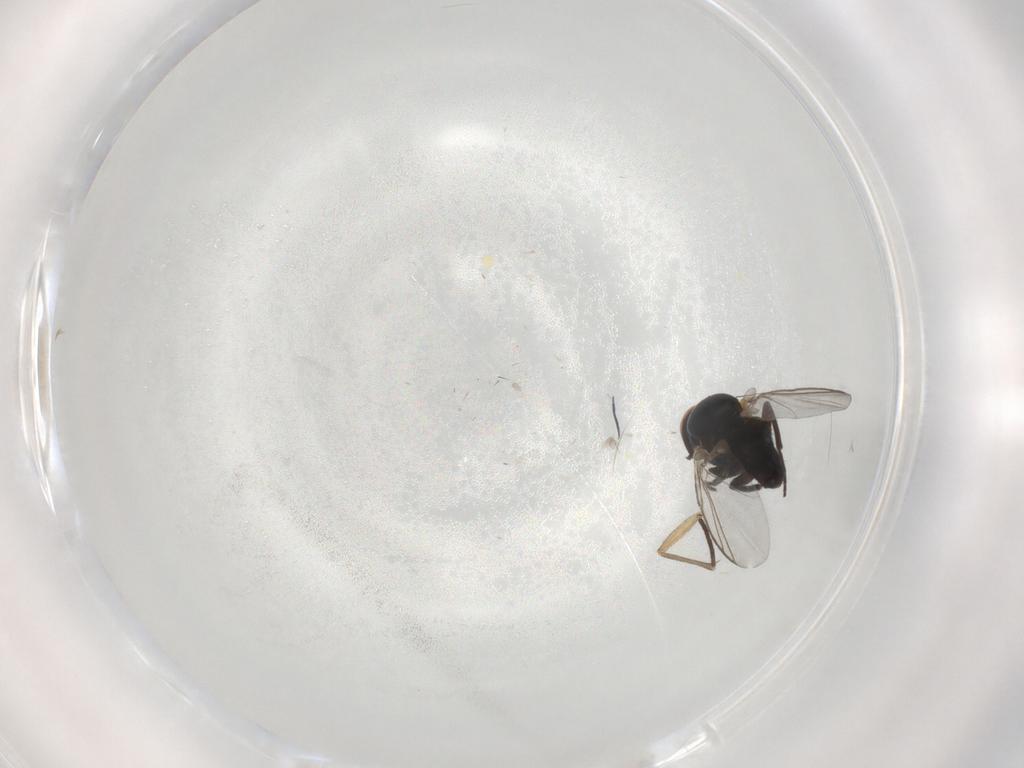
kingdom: Animalia
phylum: Arthropoda
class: Insecta
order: Diptera
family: Agromyzidae
